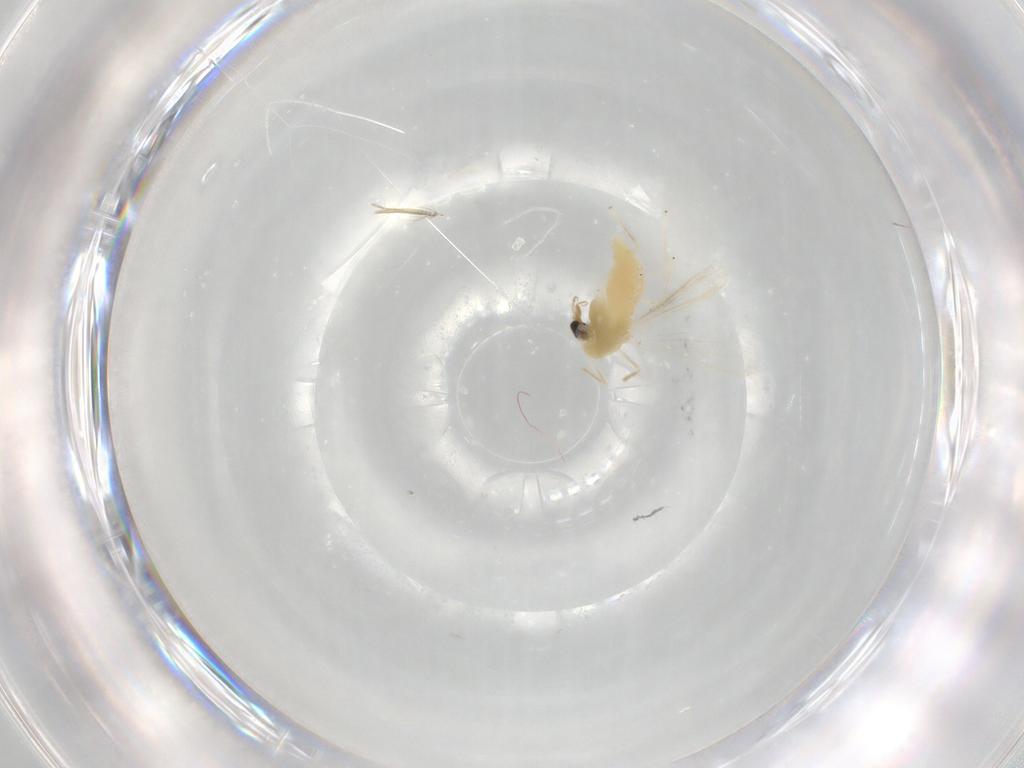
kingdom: Animalia
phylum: Arthropoda
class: Insecta
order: Diptera
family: Chironomidae
